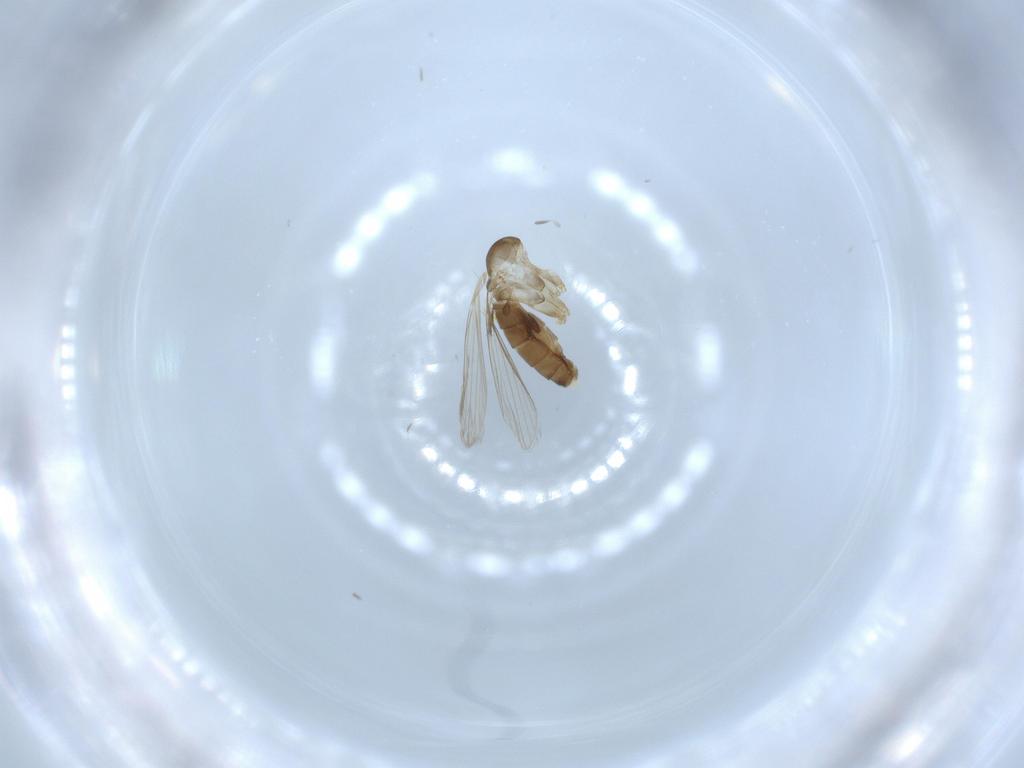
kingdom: Animalia
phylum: Arthropoda
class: Insecta
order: Diptera
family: Psychodidae
